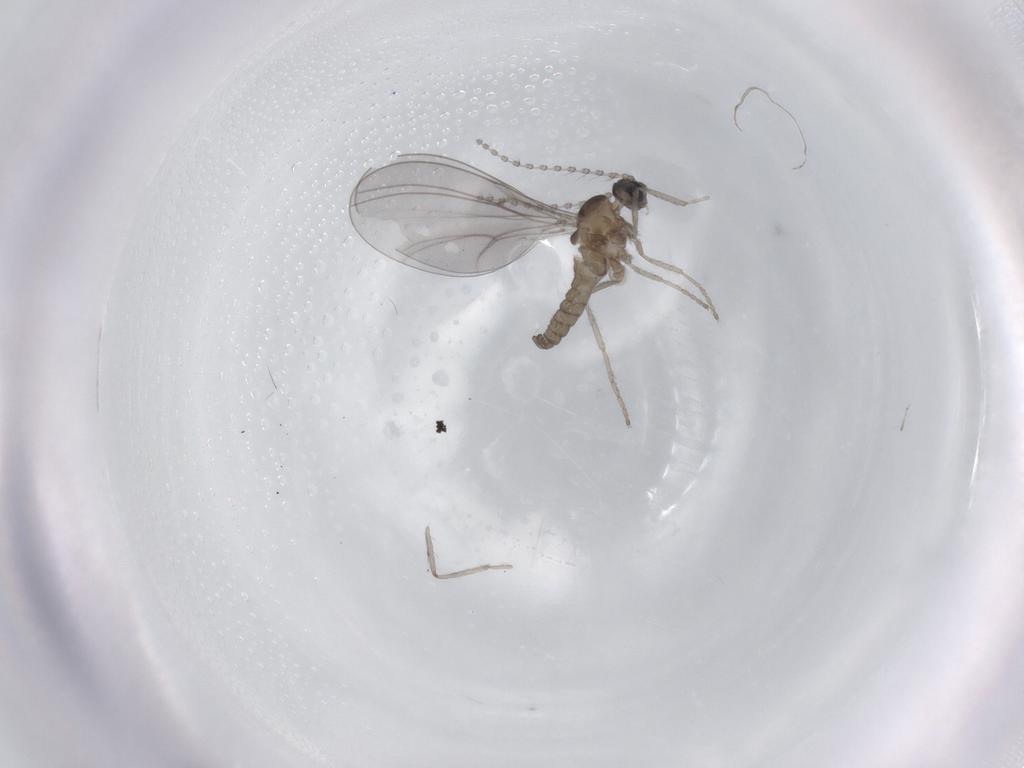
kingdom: Animalia
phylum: Arthropoda
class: Insecta
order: Diptera
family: Cecidomyiidae
